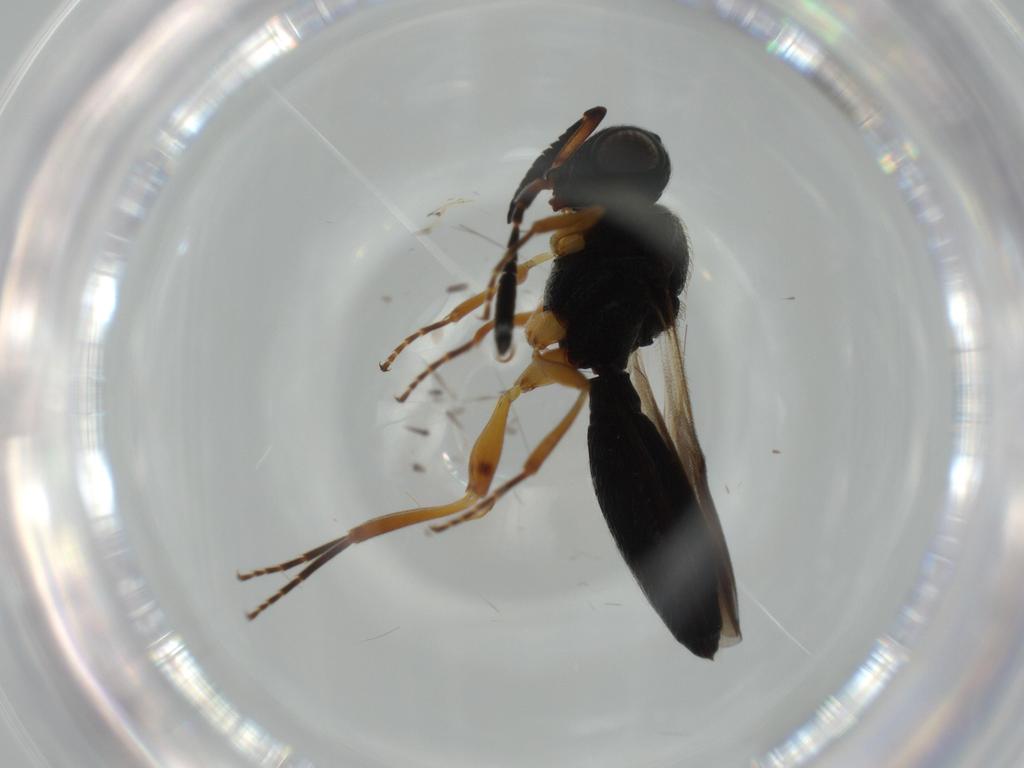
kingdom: Animalia
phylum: Arthropoda
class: Insecta
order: Hymenoptera
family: Scelionidae
